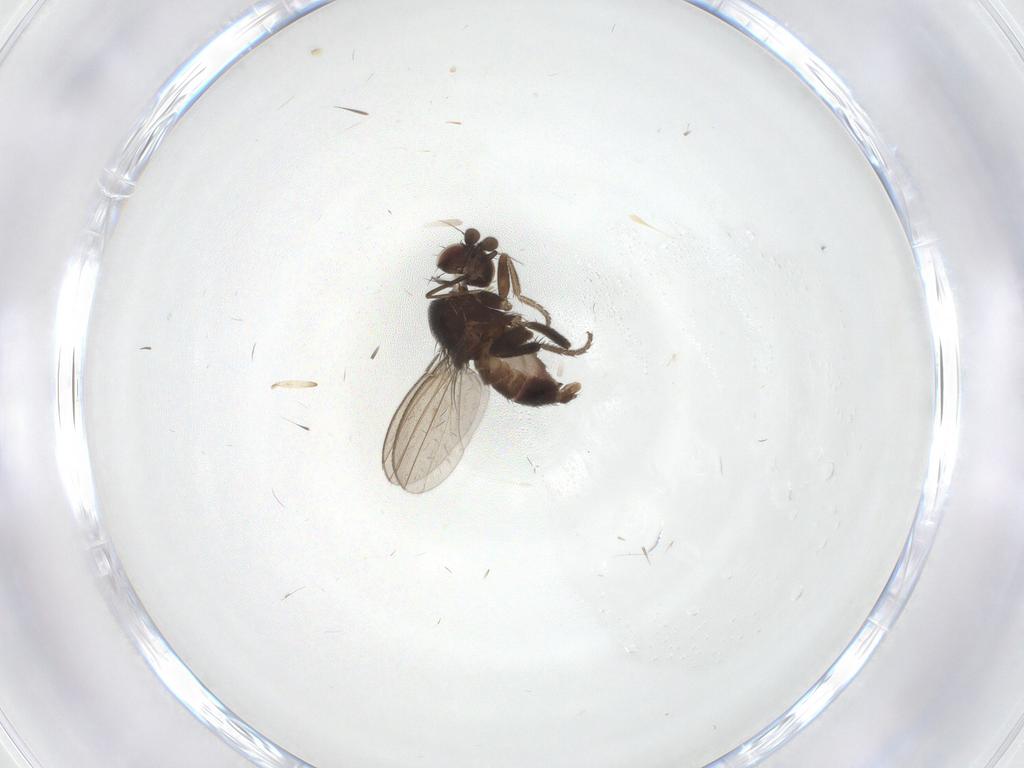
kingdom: Animalia
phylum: Arthropoda
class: Insecta
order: Diptera
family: Milichiidae
